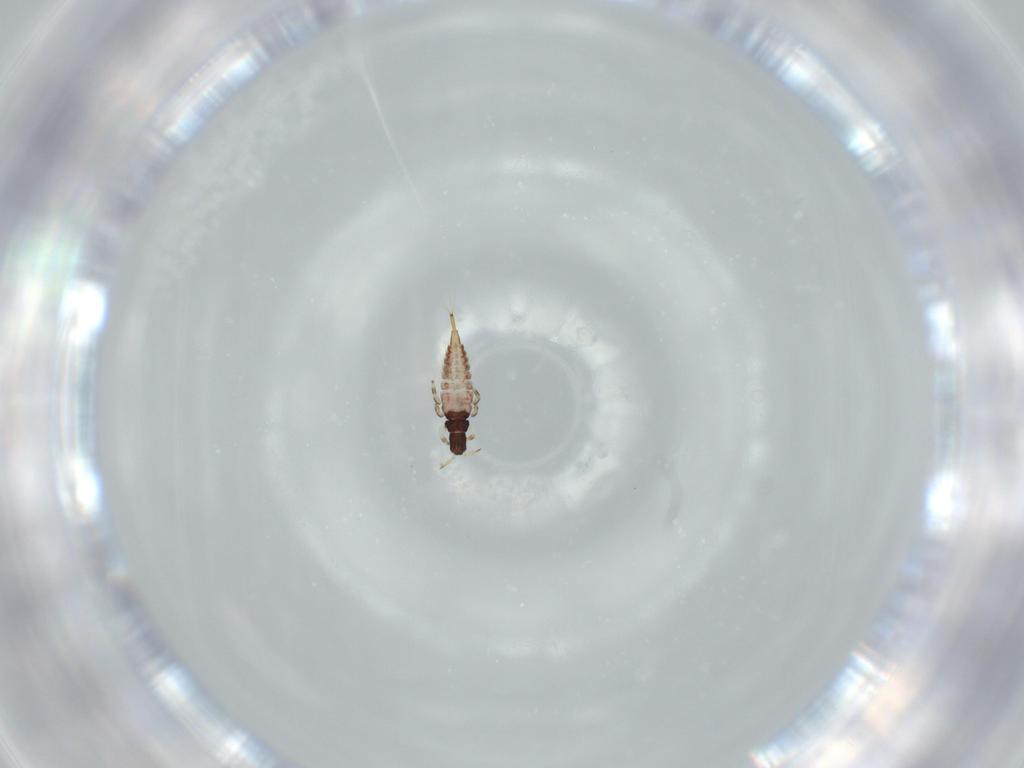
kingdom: Animalia
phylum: Arthropoda
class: Insecta
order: Thysanoptera
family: Phlaeothripidae
